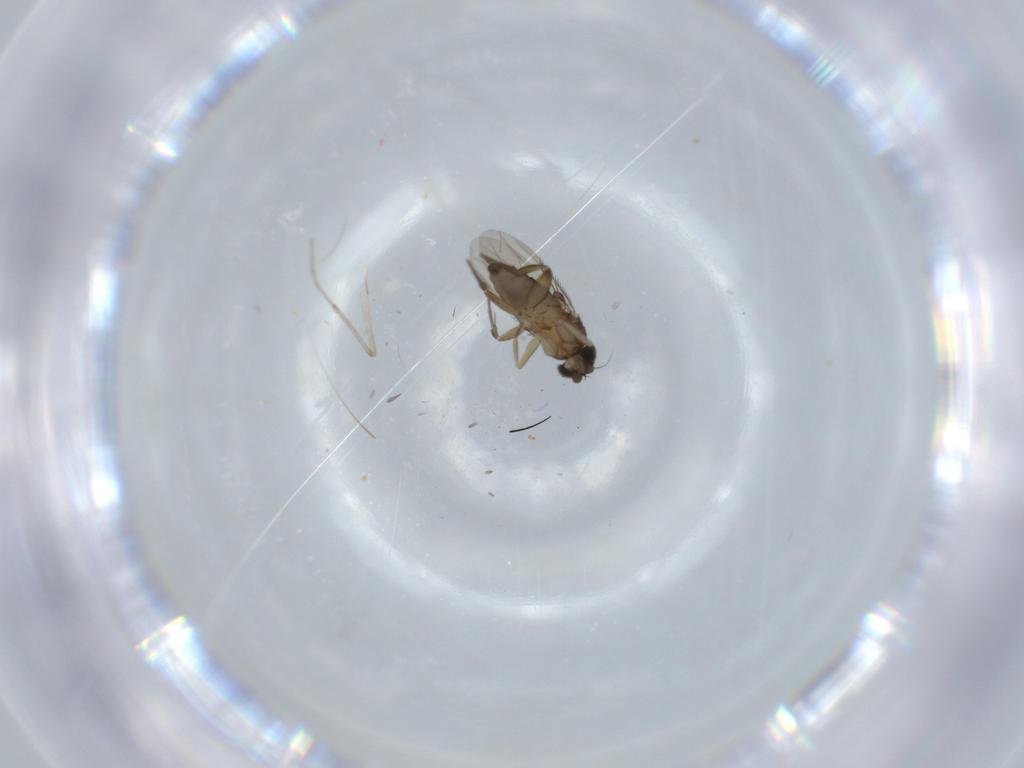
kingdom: Animalia
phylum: Arthropoda
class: Insecta
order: Diptera
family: Phoridae
